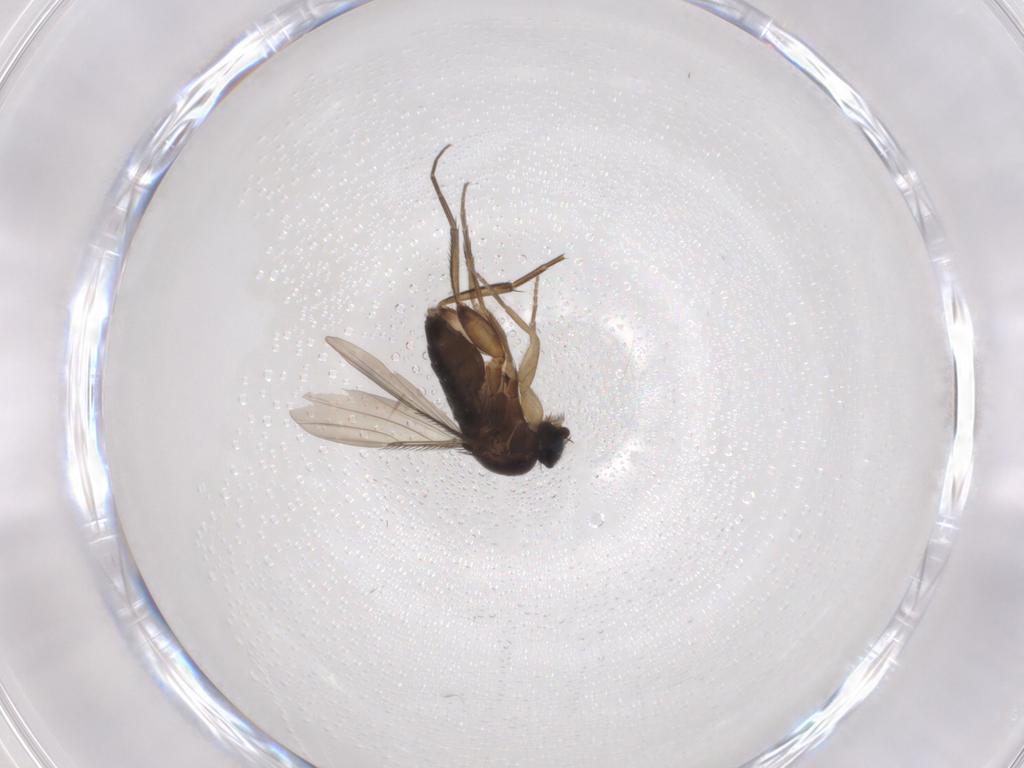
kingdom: Animalia
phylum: Arthropoda
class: Insecta
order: Diptera
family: Phoridae
